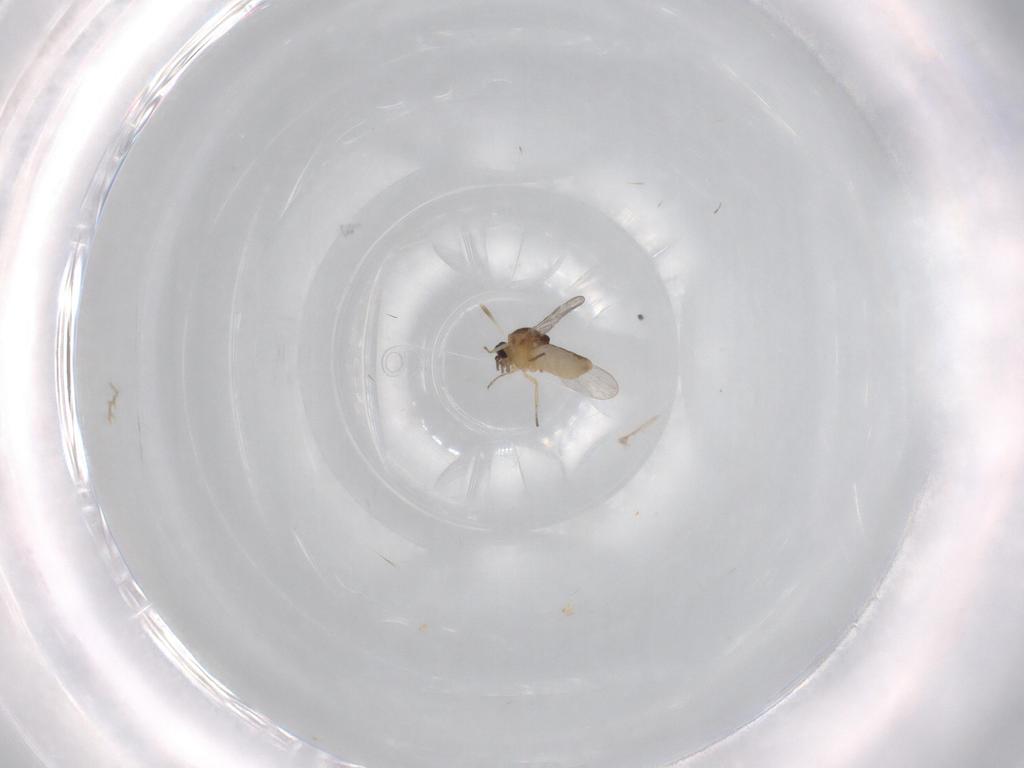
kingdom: Animalia
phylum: Arthropoda
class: Insecta
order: Diptera
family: Ceratopogonidae
